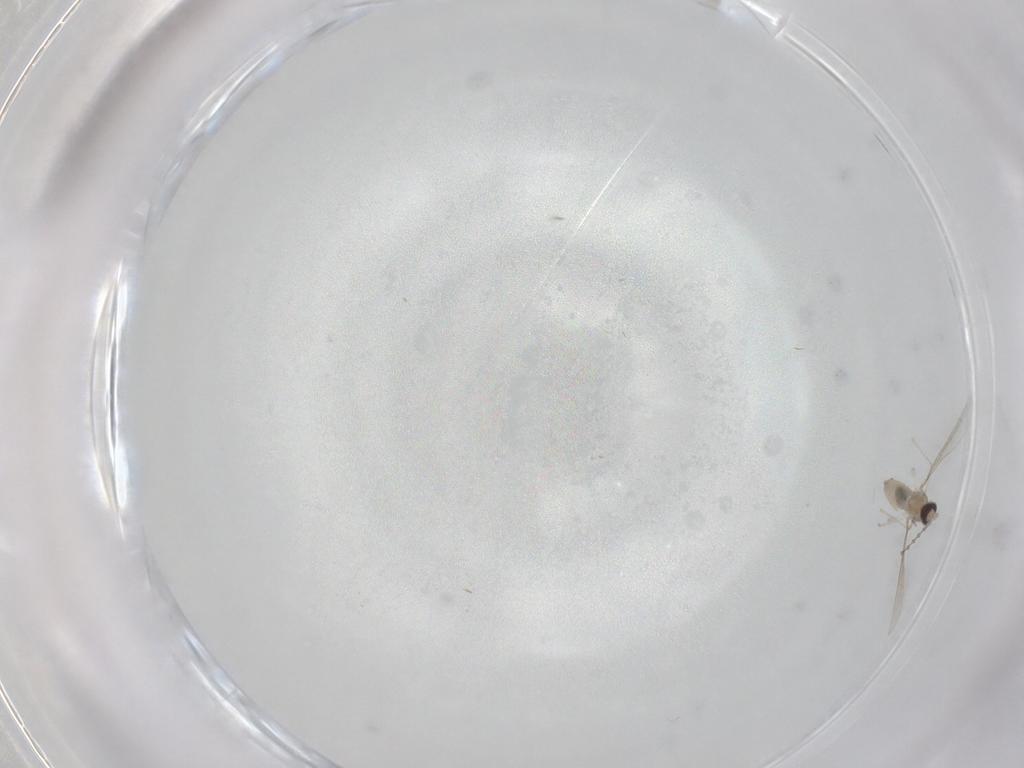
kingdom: Animalia
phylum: Arthropoda
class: Insecta
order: Diptera
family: Cecidomyiidae
